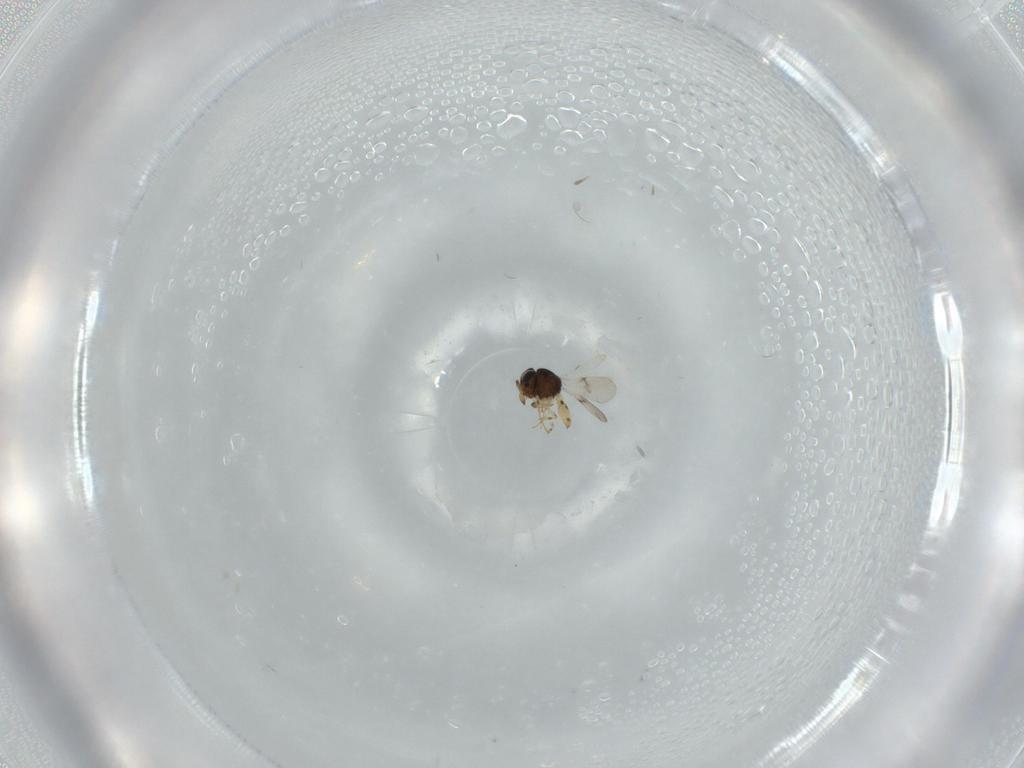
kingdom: Animalia
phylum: Arthropoda
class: Insecta
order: Hymenoptera
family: Scelionidae
